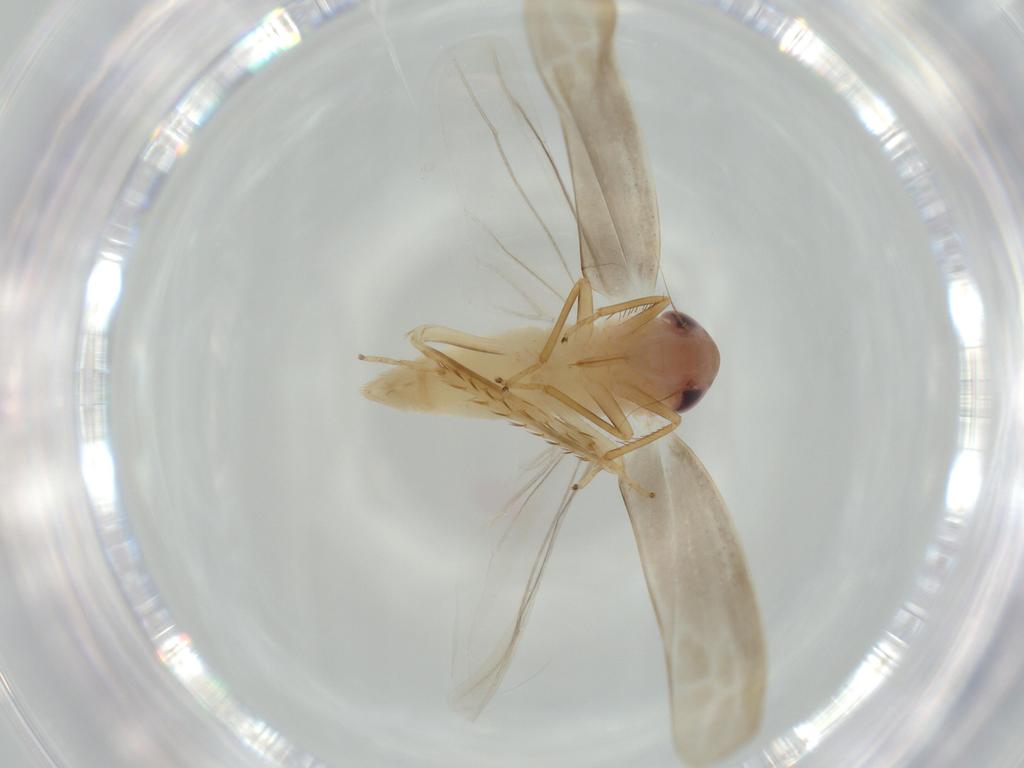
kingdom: Animalia
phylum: Arthropoda
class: Insecta
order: Hemiptera
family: Cicadellidae
